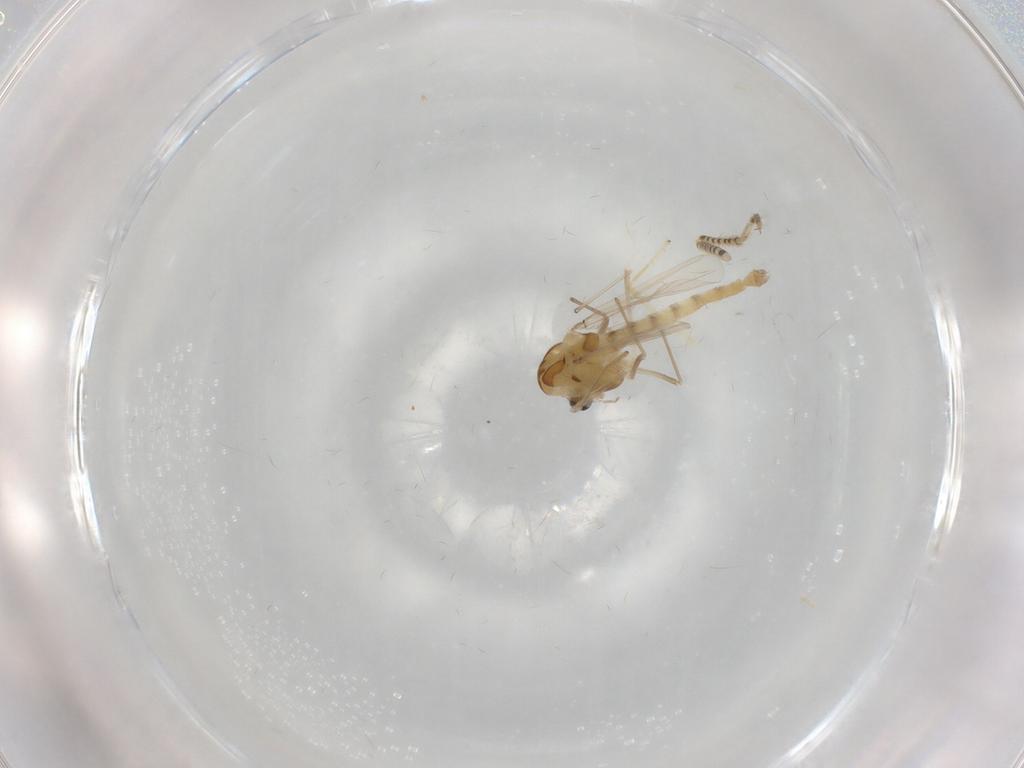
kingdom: Animalia
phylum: Arthropoda
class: Insecta
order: Diptera
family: Chironomidae
